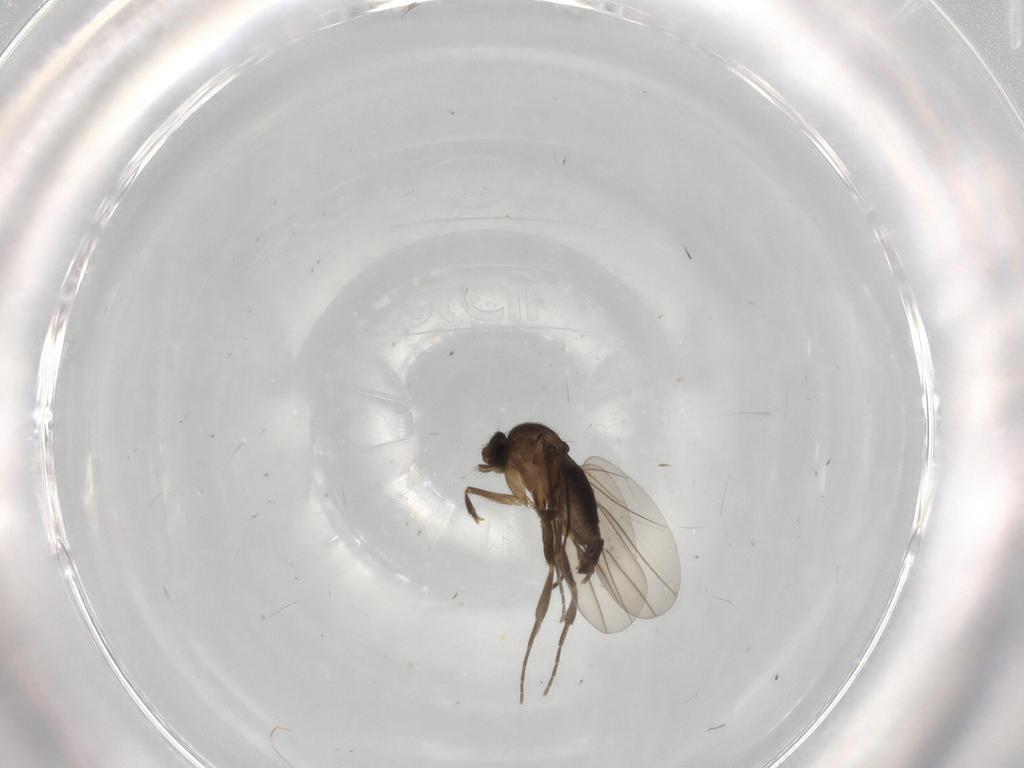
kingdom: Animalia
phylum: Arthropoda
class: Insecta
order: Diptera
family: Phoridae
